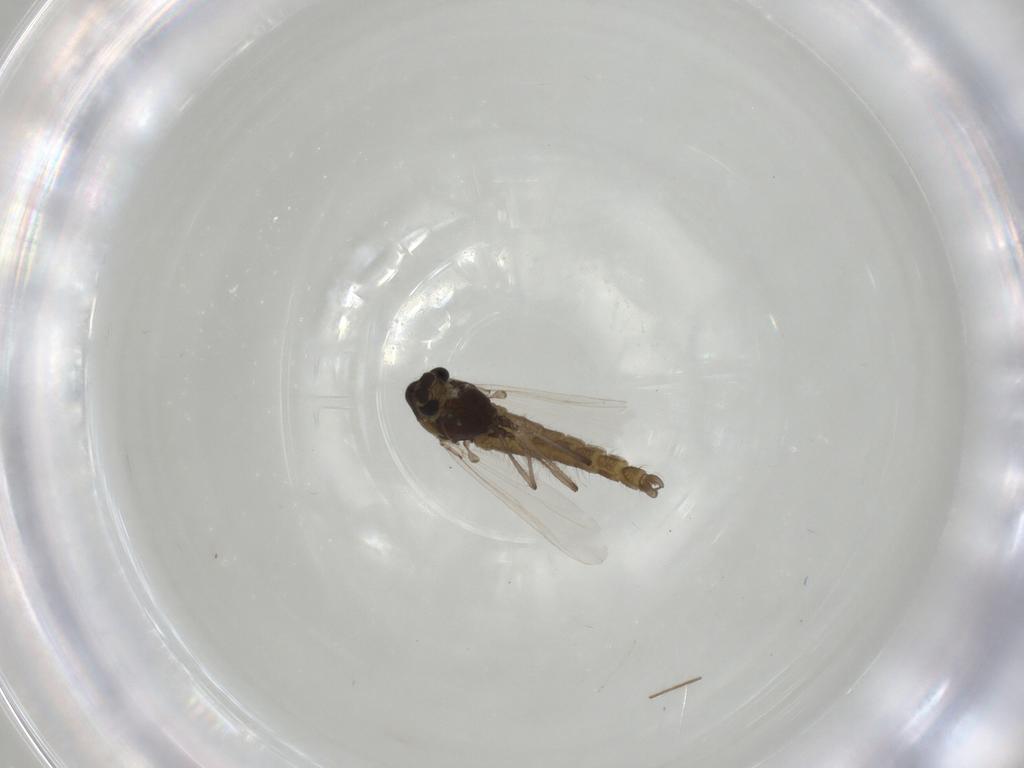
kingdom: Animalia
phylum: Arthropoda
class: Insecta
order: Diptera
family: Chironomidae
